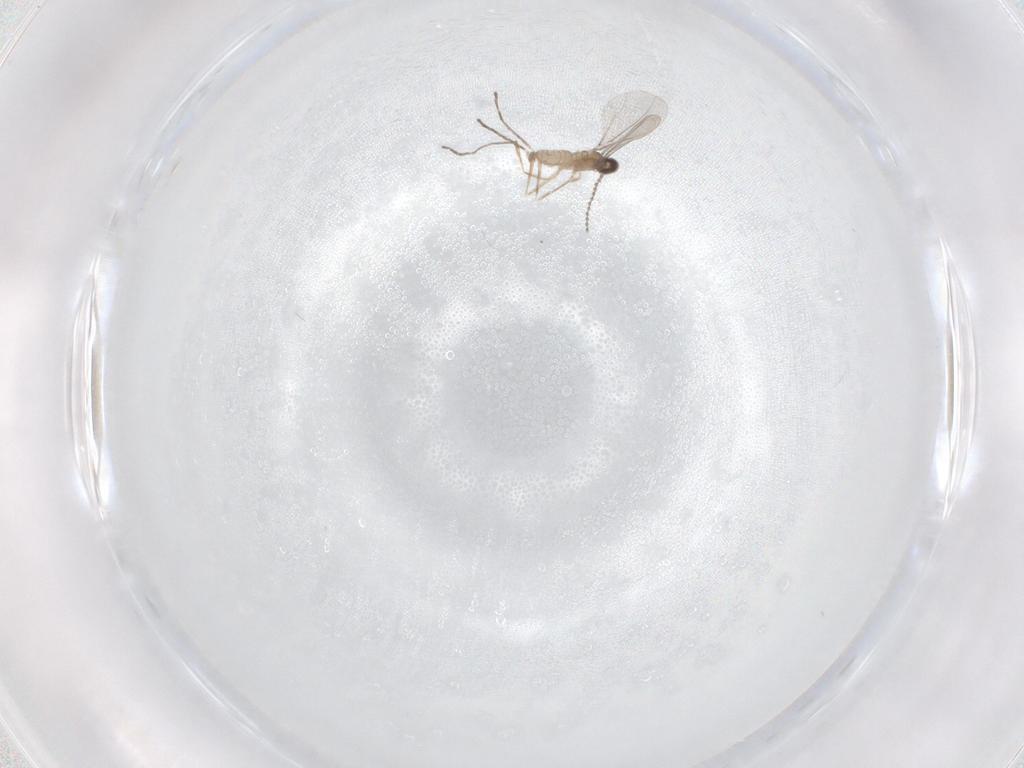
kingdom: Animalia
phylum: Arthropoda
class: Insecta
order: Diptera
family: Cecidomyiidae
